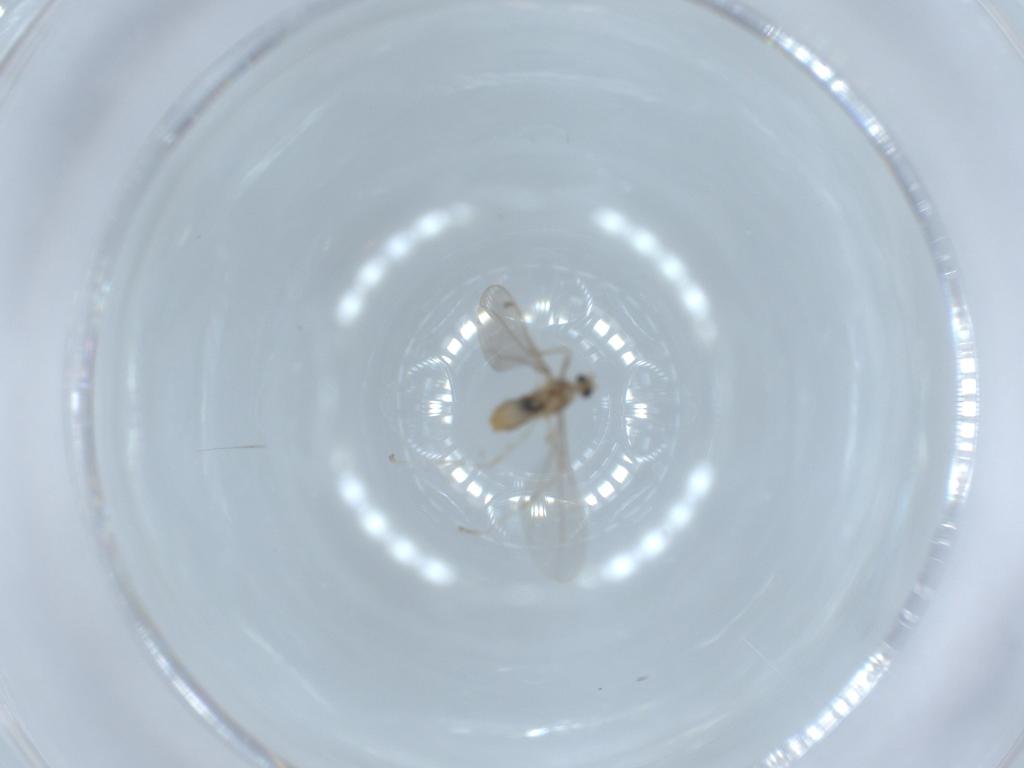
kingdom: Animalia
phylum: Arthropoda
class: Insecta
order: Diptera
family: Cecidomyiidae
